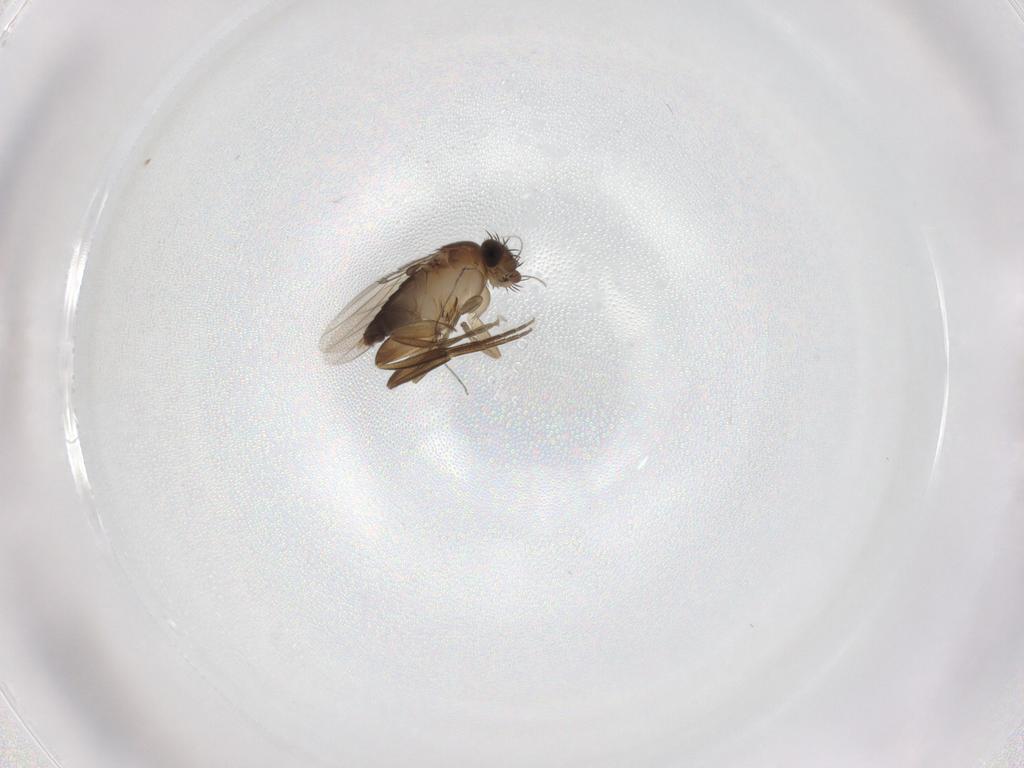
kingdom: Animalia
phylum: Arthropoda
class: Insecta
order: Diptera
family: Phoridae
